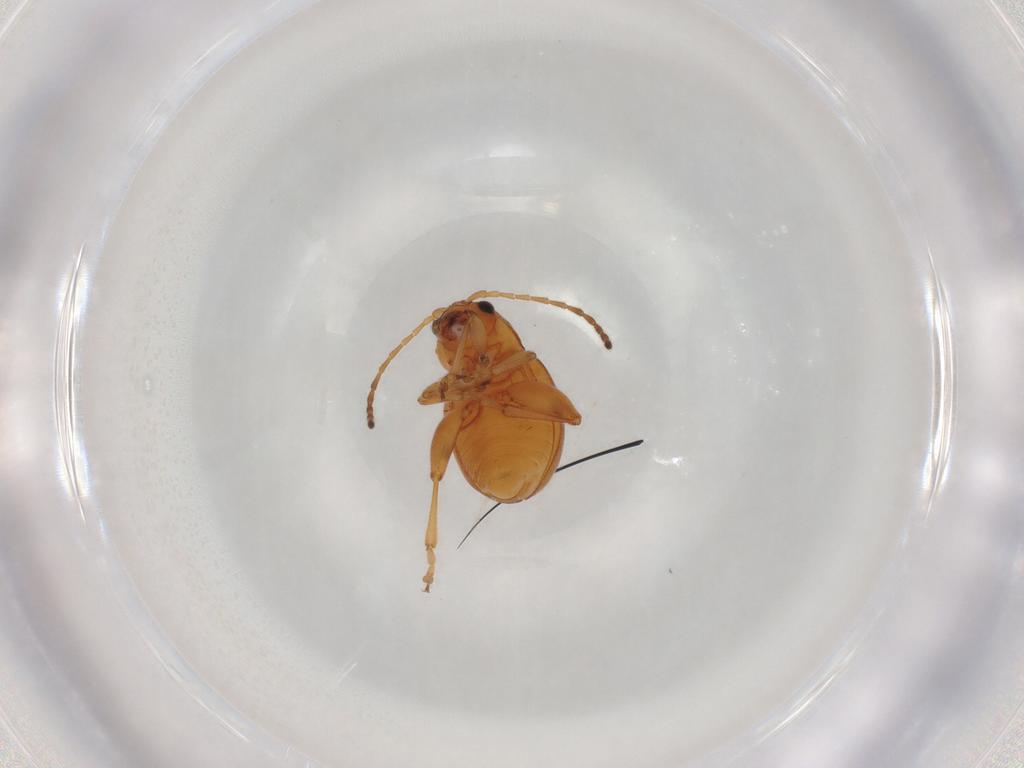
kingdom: Animalia
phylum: Arthropoda
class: Insecta
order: Coleoptera
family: Chrysomelidae
